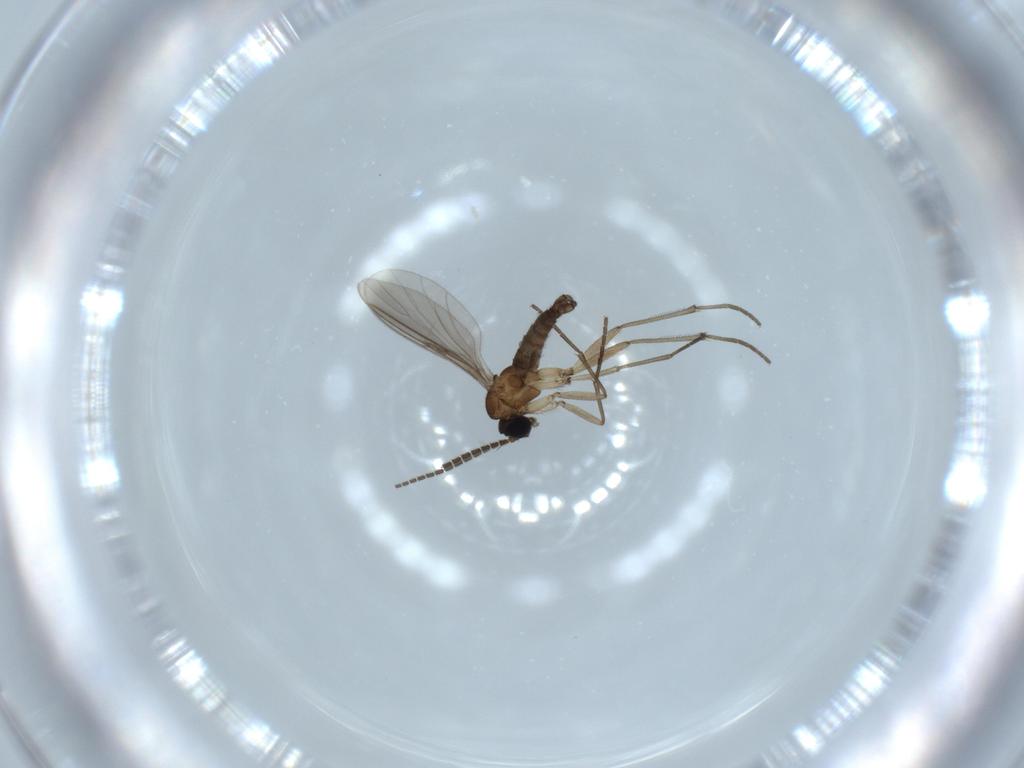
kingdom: Animalia
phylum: Arthropoda
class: Insecta
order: Diptera
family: Sciaridae
